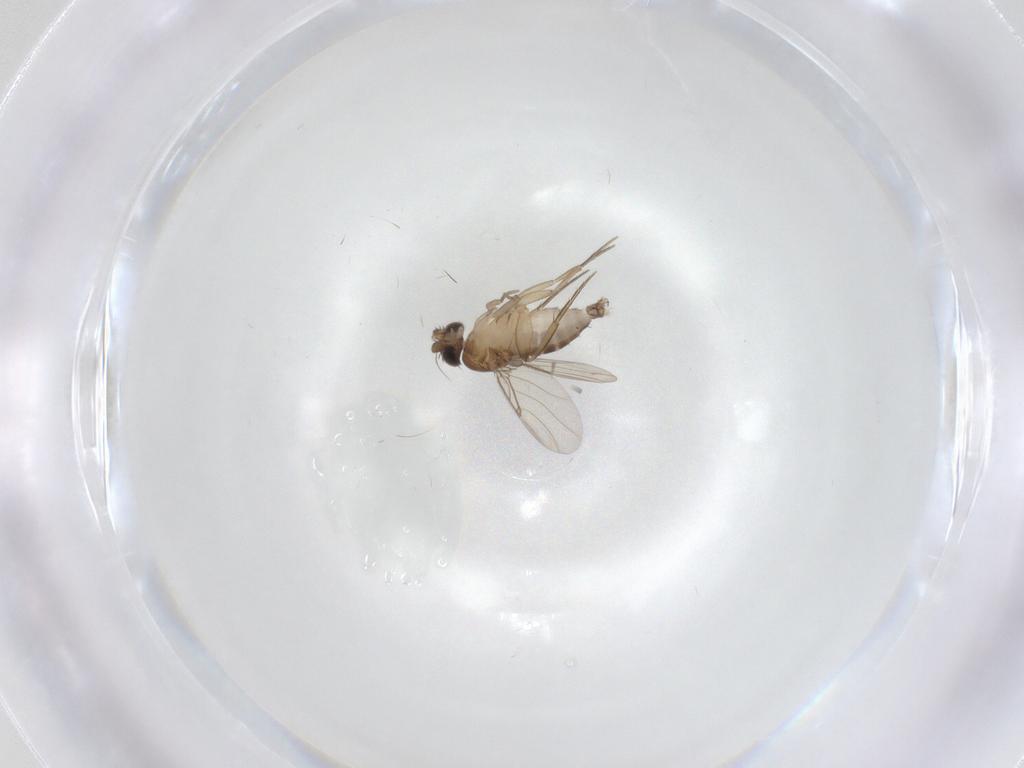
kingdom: Animalia
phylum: Arthropoda
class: Insecta
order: Diptera
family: Phoridae
